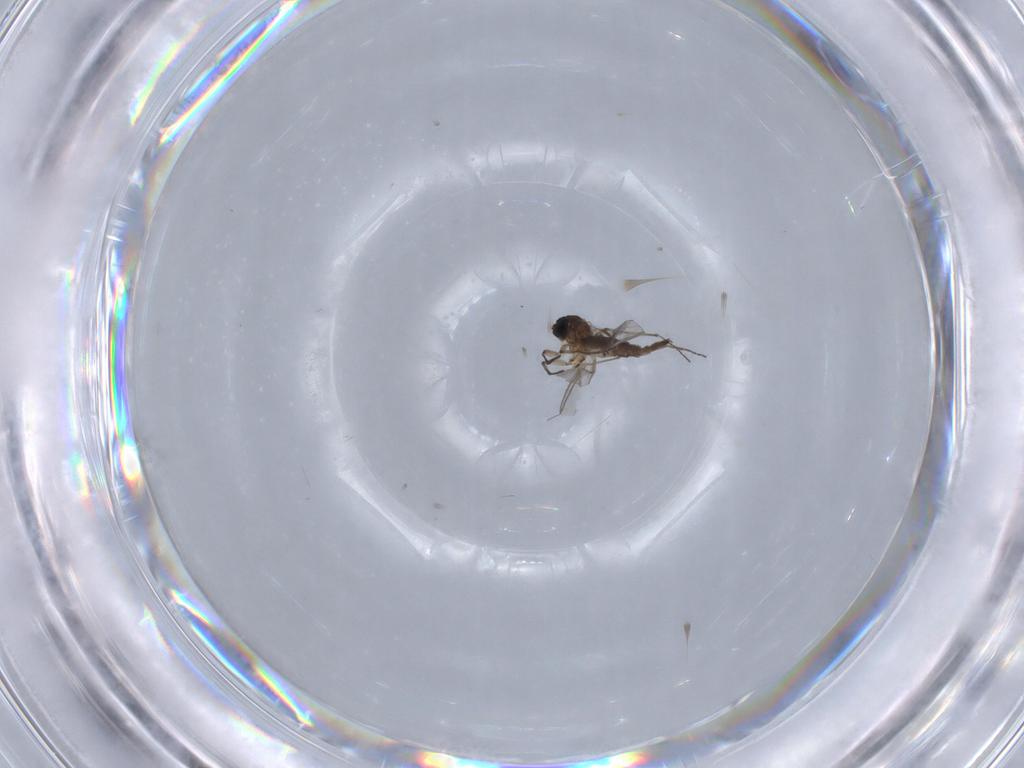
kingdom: Animalia
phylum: Arthropoda
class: Insecta
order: Diptera
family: Sciaridae
